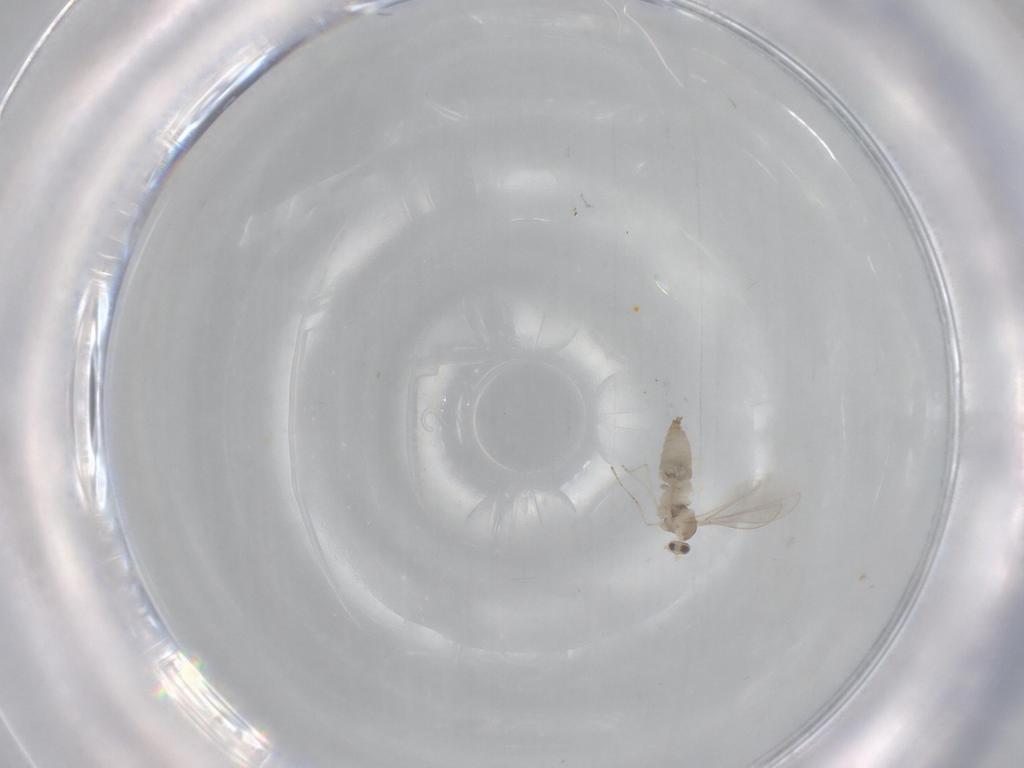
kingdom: Animalia
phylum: Arthropoda
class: Insecta
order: Diptera
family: Cecidomyiidae
